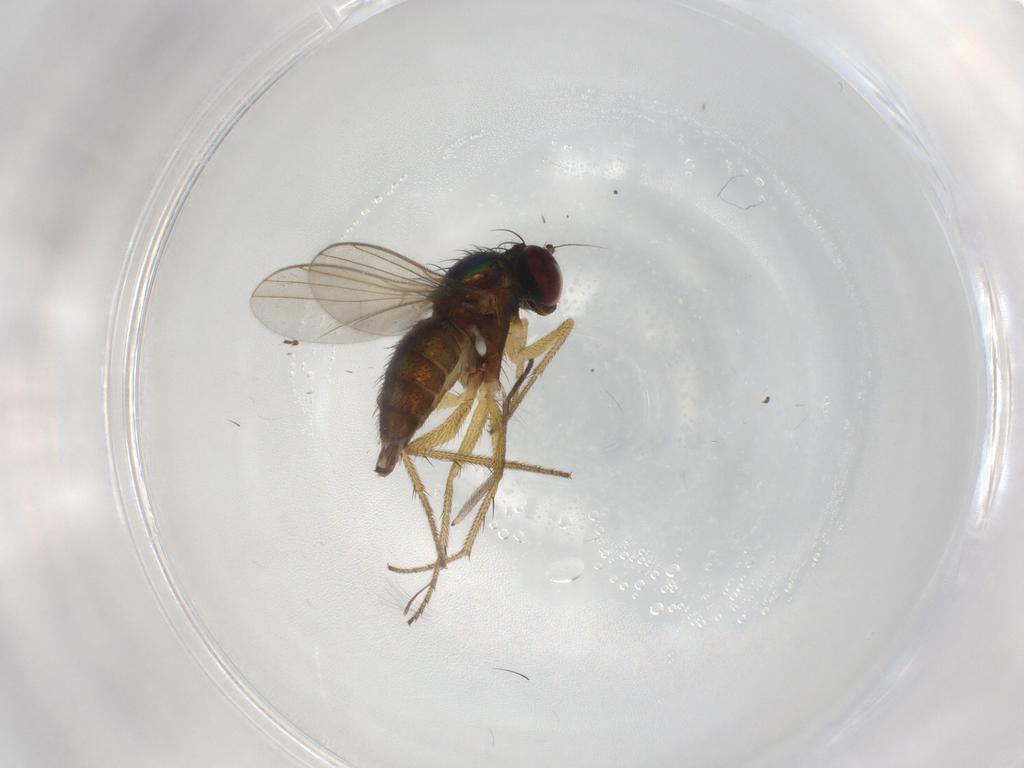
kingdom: Animalia
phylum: Arthropoda
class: Insecta
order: Diptera
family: Sciaridae
